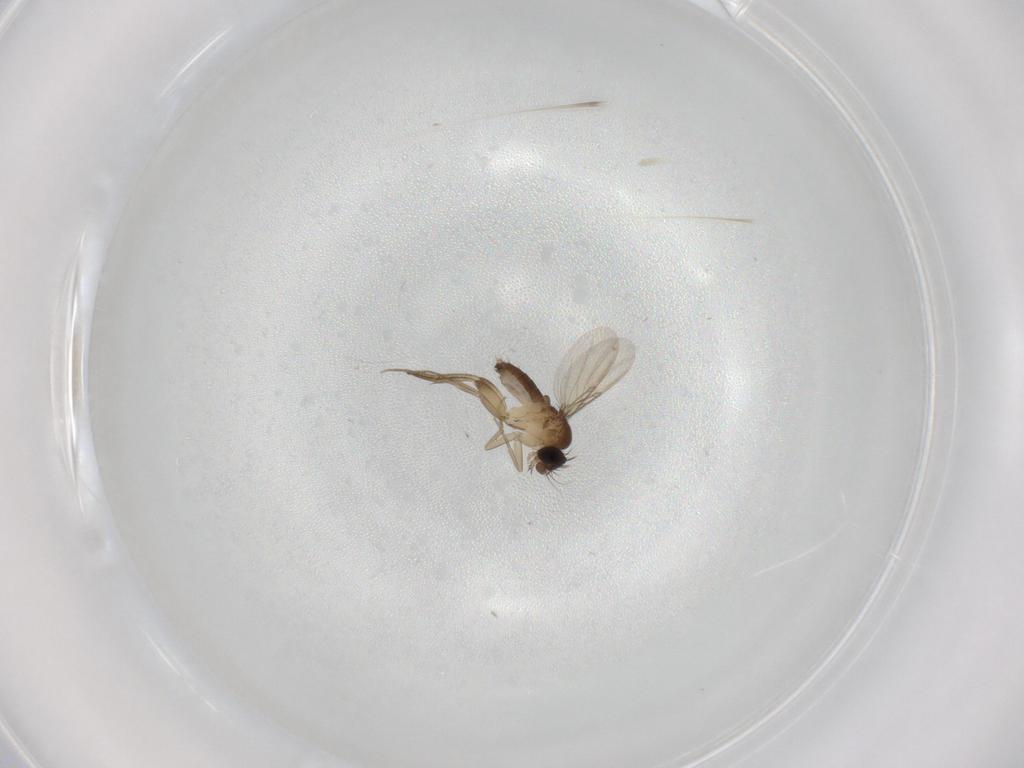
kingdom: Animalia
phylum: Arthropoda
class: Insecta
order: Diptera
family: Phoridae
